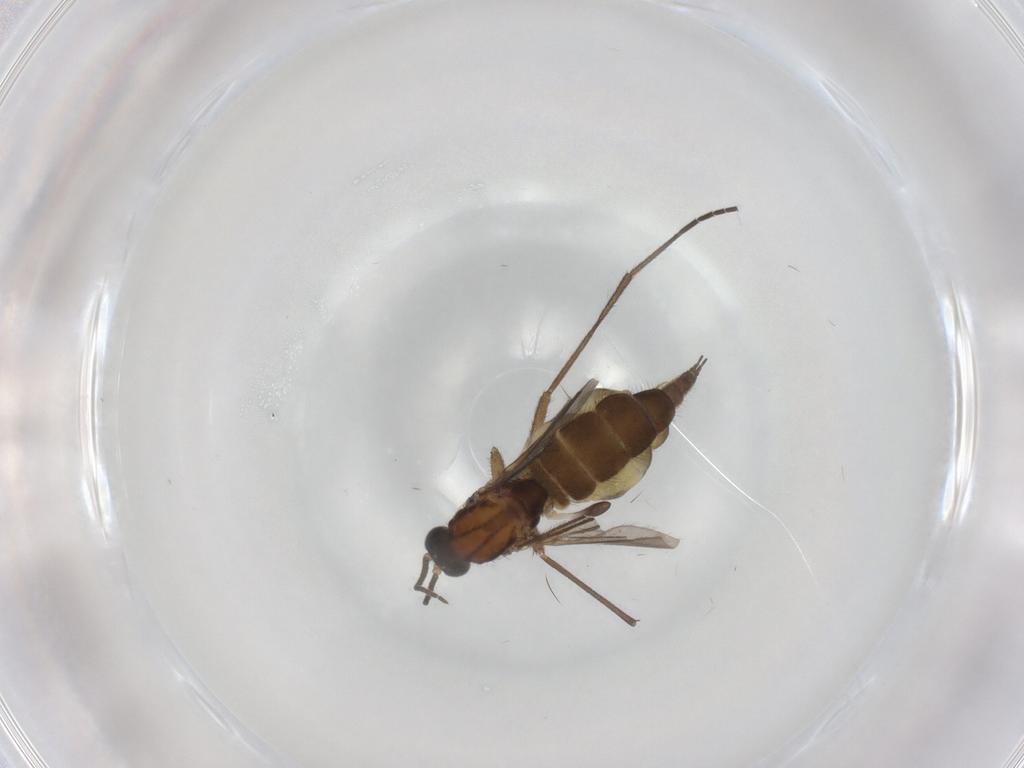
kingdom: Animalia
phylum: Arthropoda
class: Insecta
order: Diptera
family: Sciaridae
